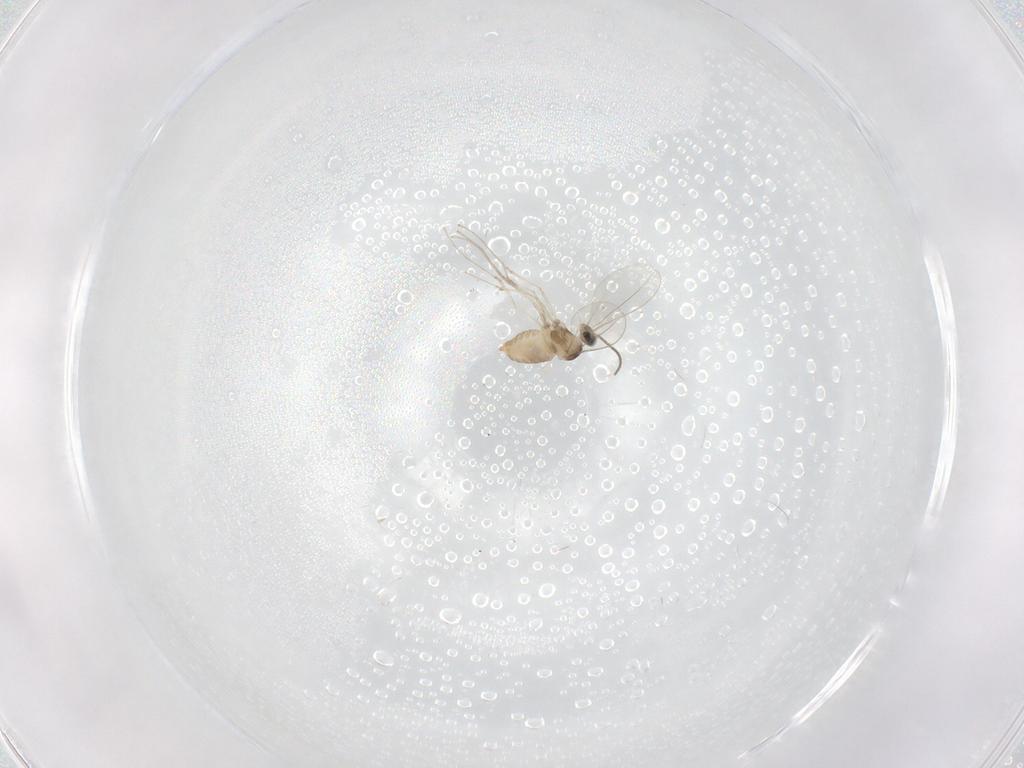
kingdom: Animalia
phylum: Arthropoda
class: Insecta
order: Diptera
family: Cecidomyiidae
